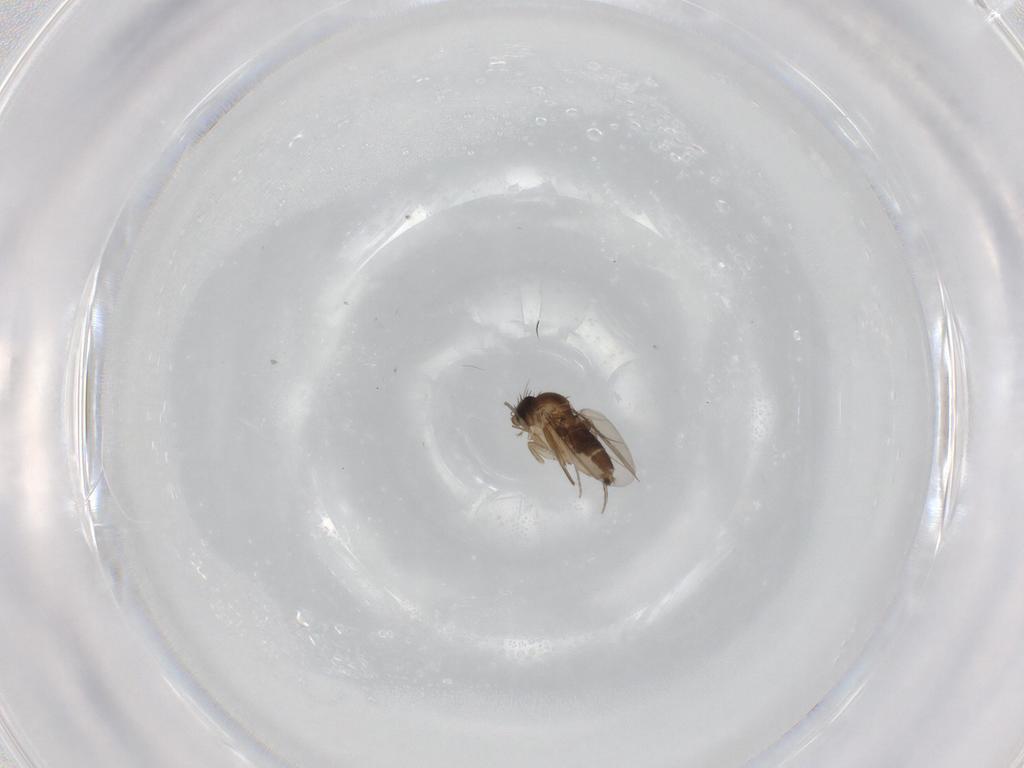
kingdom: Animalia
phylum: Arthropoda
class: Insecta
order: Diptera
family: Phoridae
